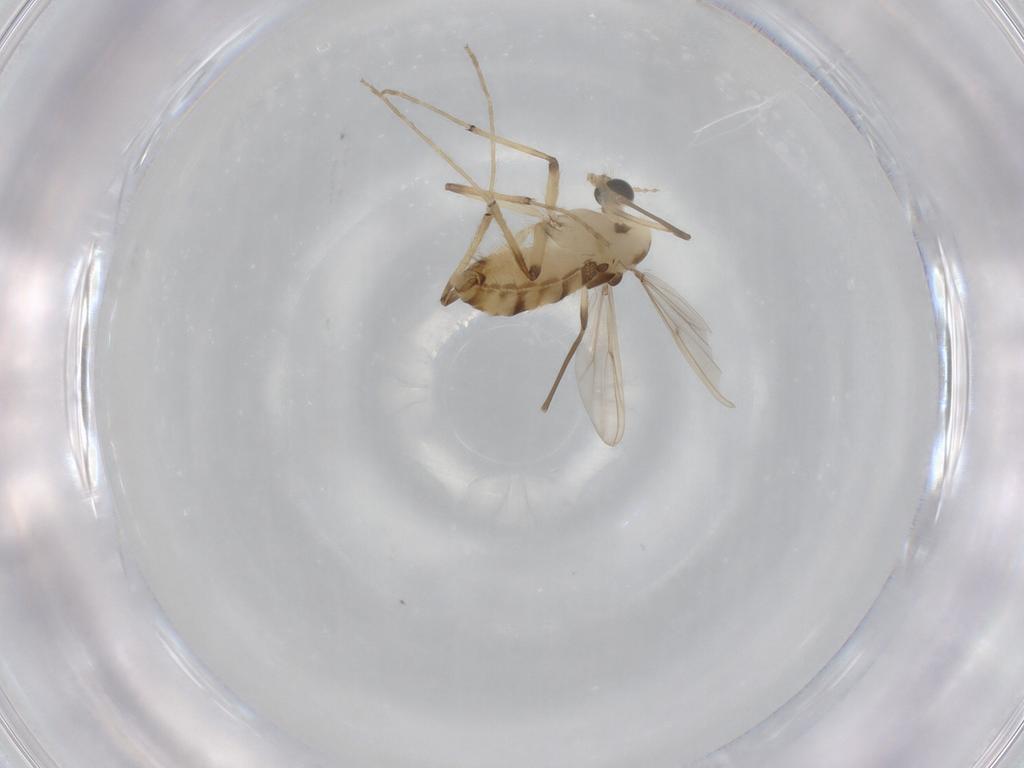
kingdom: Animalia
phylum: Arthropoda
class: Insecta
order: Diptera
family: Chironomidae
